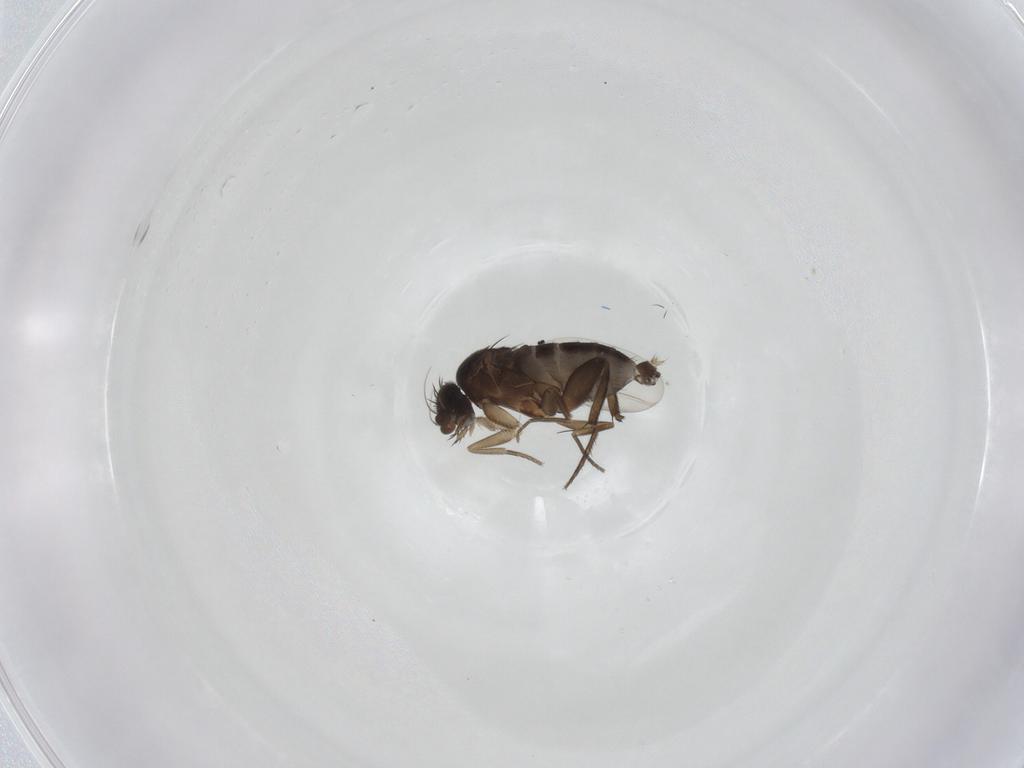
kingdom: Animalia
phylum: Arthropoda
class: Insecta
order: Diptera
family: Phoridae
